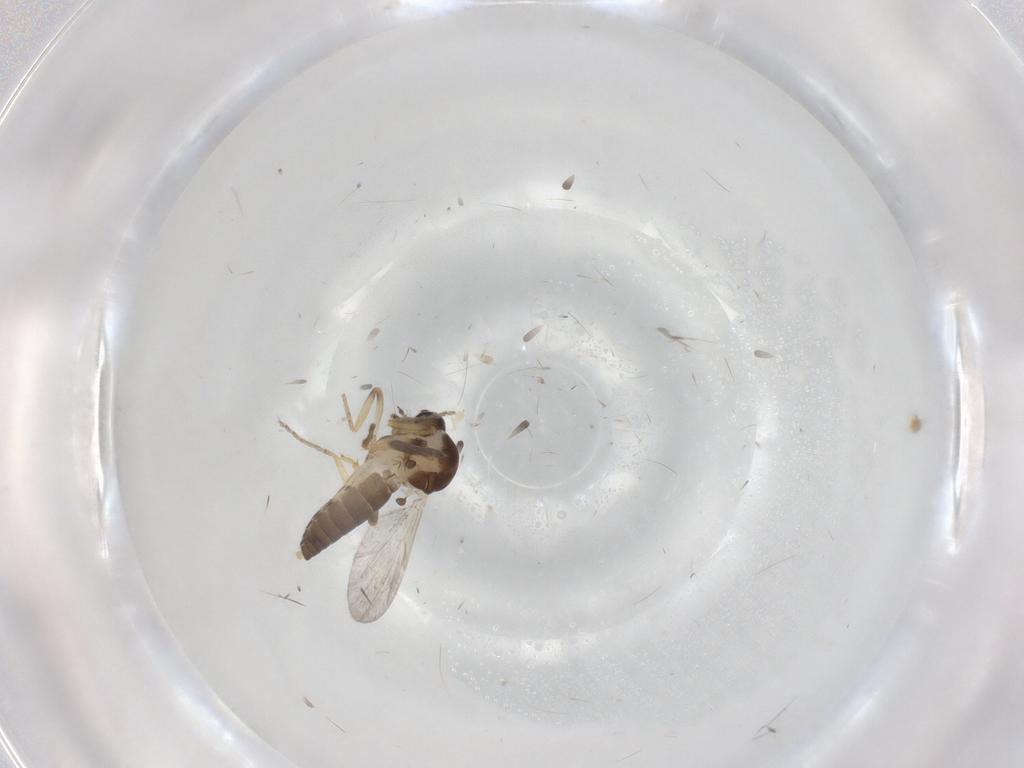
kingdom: Animalia
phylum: Arthropoda
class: Insecta
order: Diptera
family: Ceratopogonidae
